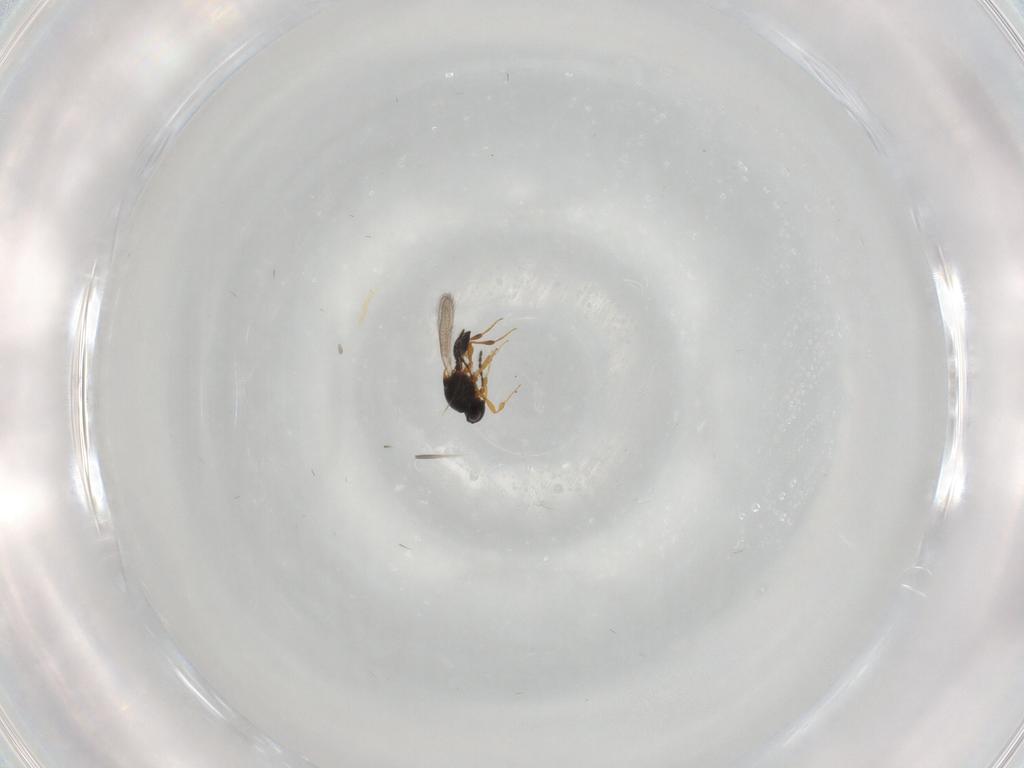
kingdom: Animalia
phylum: Arthropoda
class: Insecta
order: Hymenoptera
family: Platygastridae
